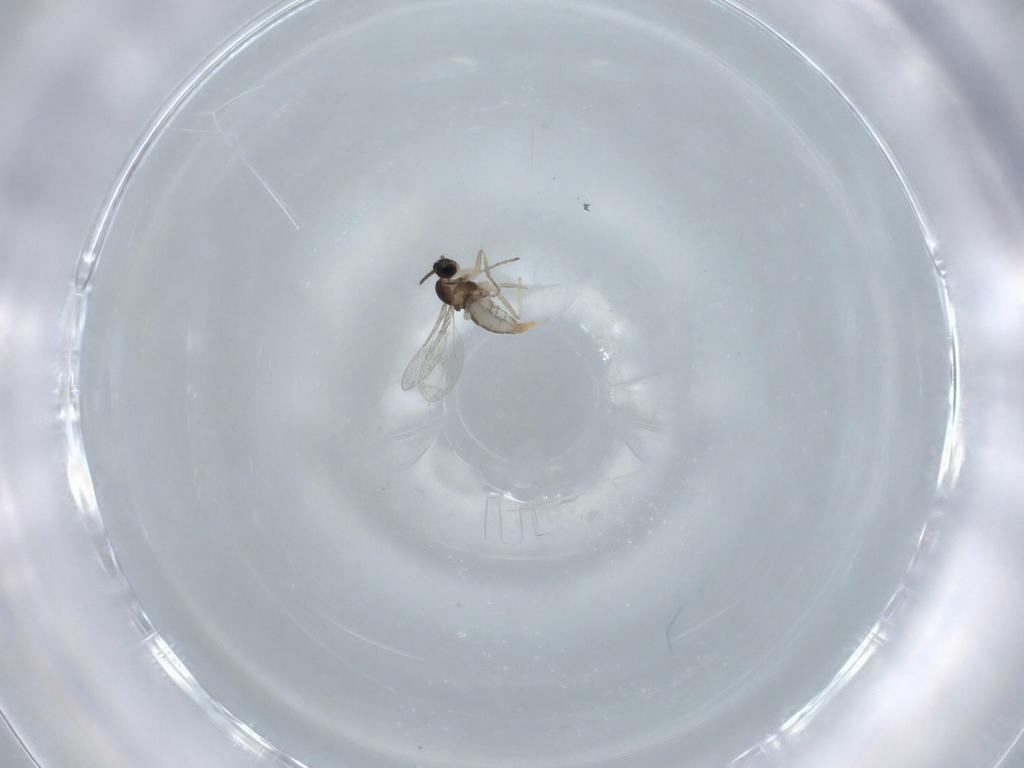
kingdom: Animalia
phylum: Arthropoda
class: Insecta
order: Diptera
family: Cecidomyiidae
